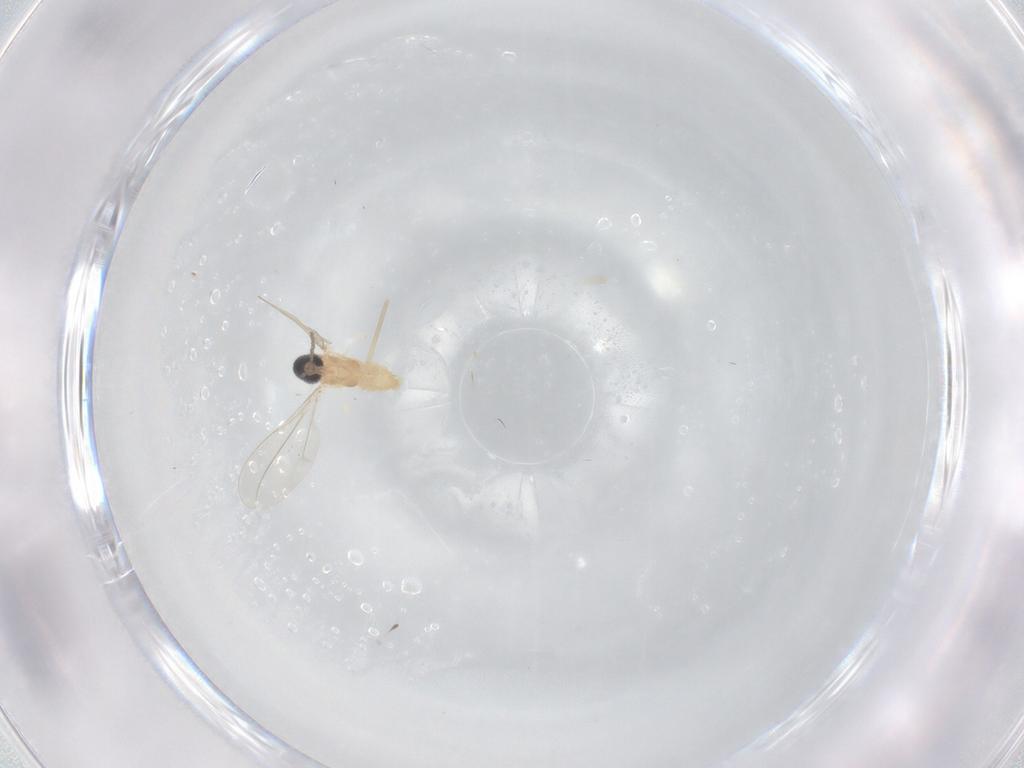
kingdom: Animalia
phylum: Arthropoda
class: Insecta
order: Diptera
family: Cecidomyiidae
